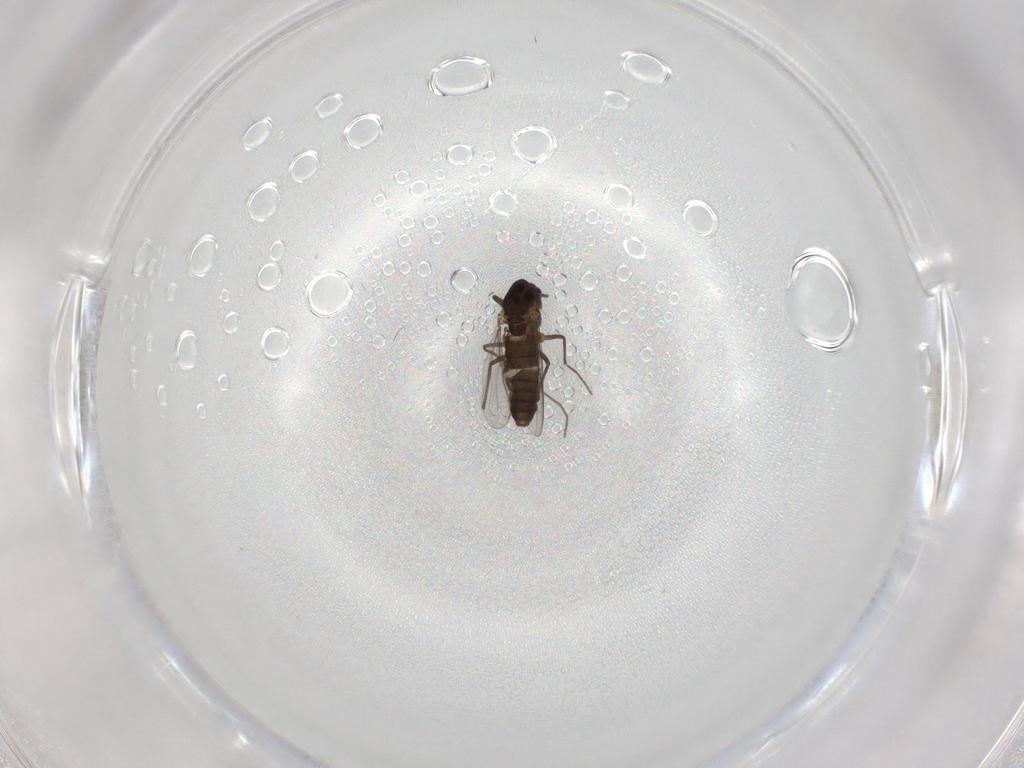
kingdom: Animalia
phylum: Arthropoda
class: Insecta
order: Diptera
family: Chironomidae
